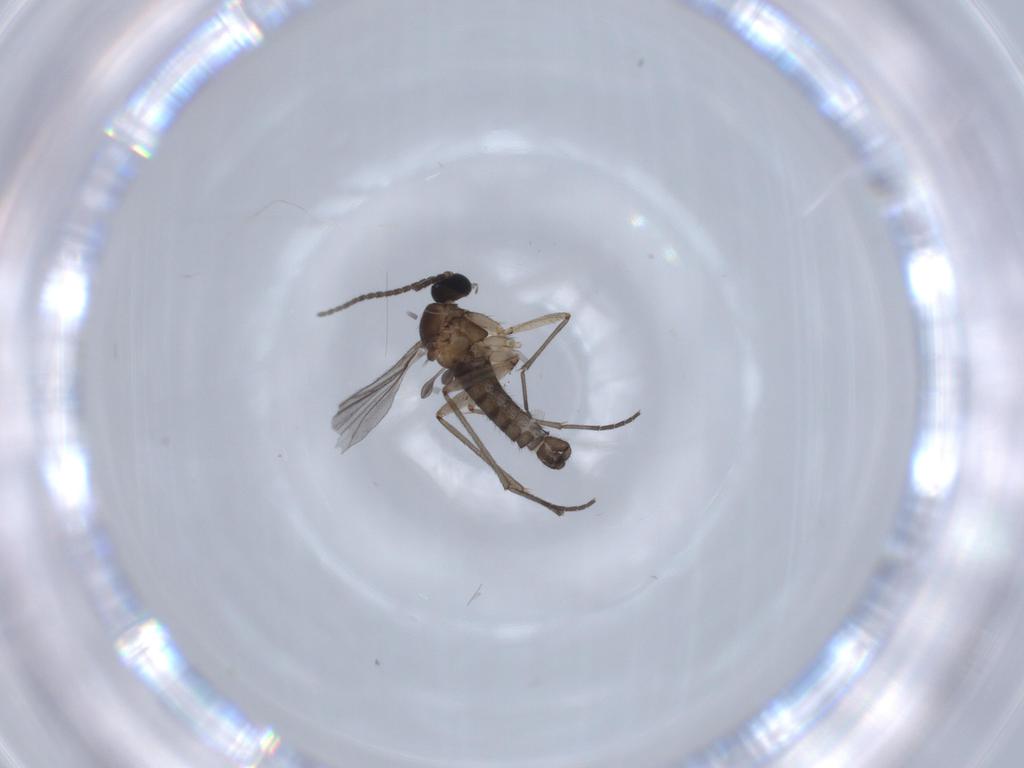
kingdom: Animalia
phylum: Arthropoda
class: Insecta
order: Diptera
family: Sciaridae
